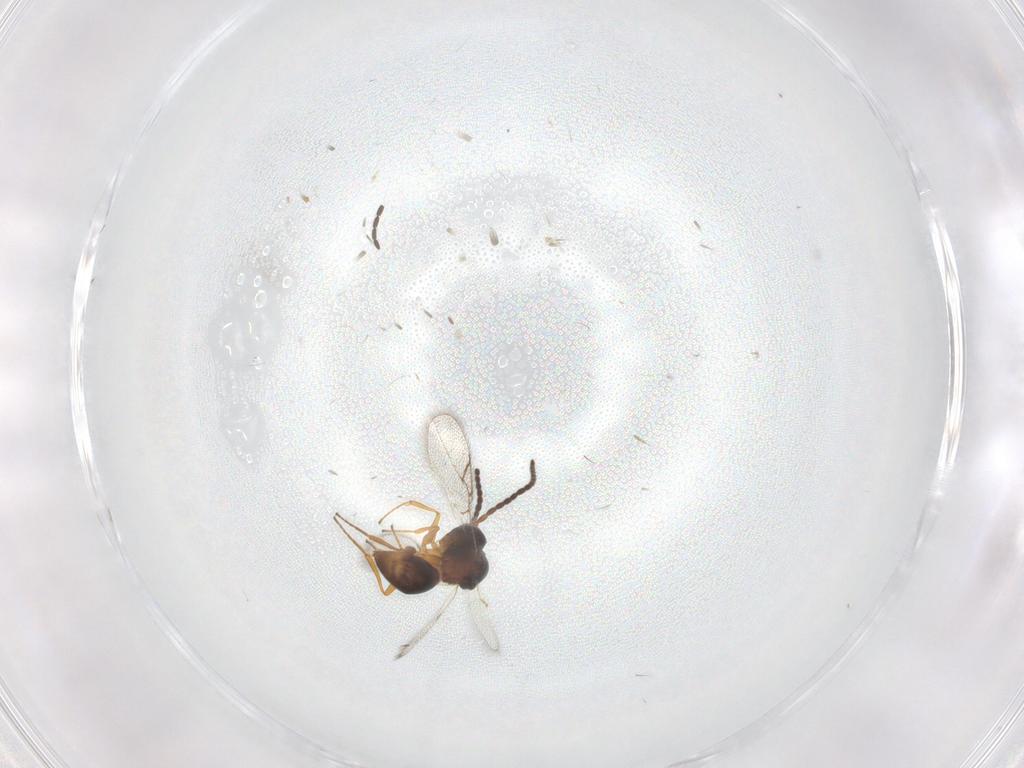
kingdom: Animalia
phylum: Arthropoda
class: Insecta
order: Hymenoptera
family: Figitidae
